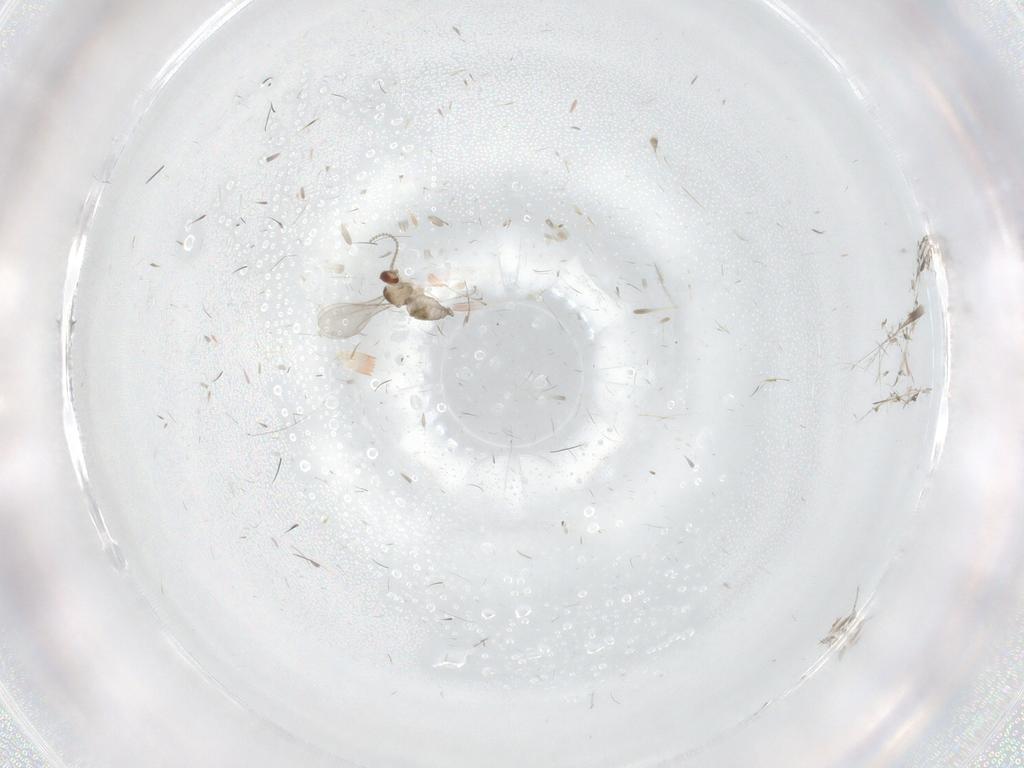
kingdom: Animalia
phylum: Arthropoda
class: Insecta
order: Diptera
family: Cecidomyiidae
